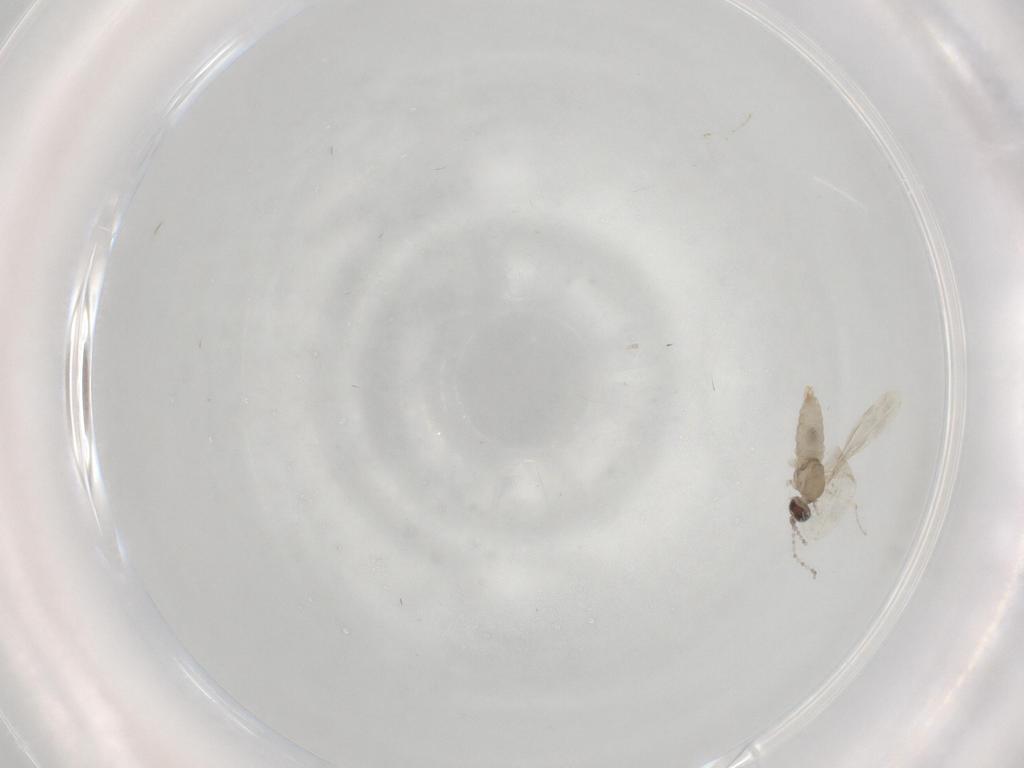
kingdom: Animalia
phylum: Arthropoda
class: Insecta
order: Diptera
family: Cecidomyiidae
